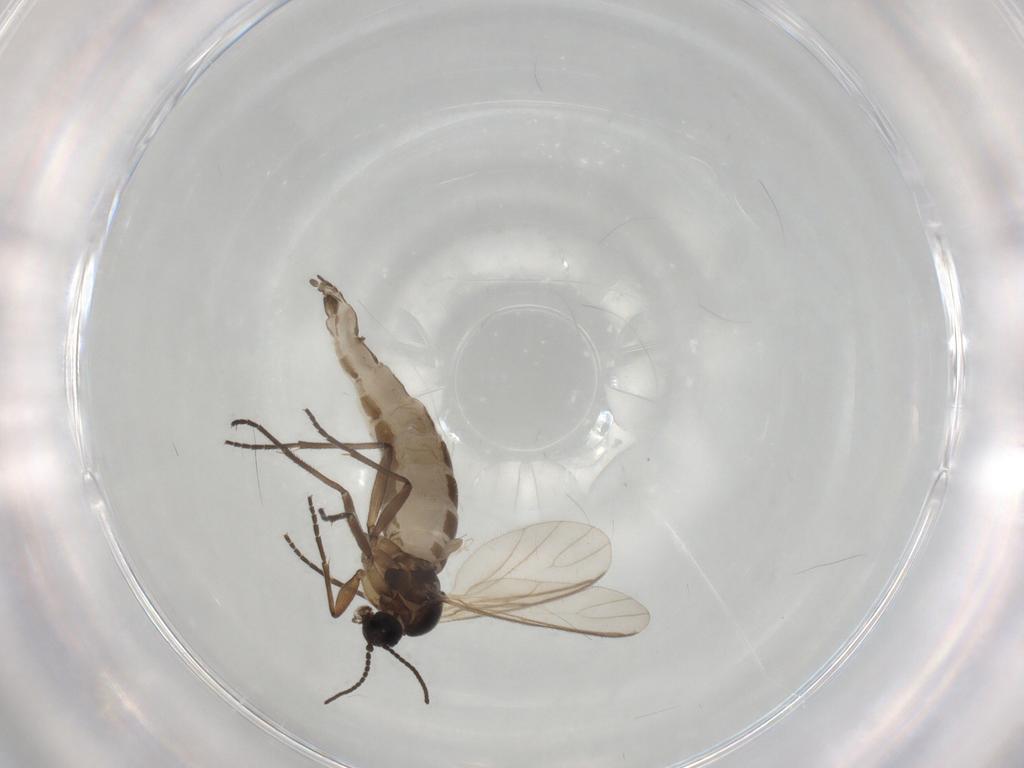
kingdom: Animalia
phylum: Arthropoda
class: Insecta
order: Diptera
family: Sciaridae
